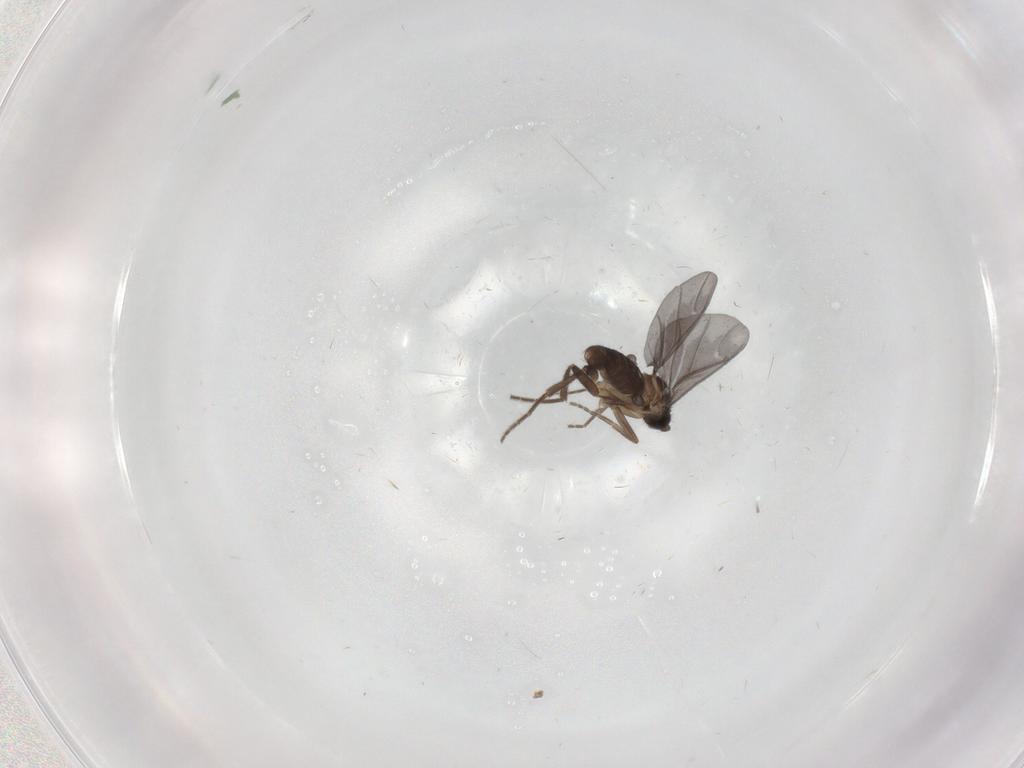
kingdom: Animalia
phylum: Arthropoda
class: Insecta
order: Diptera
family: Phoridae
